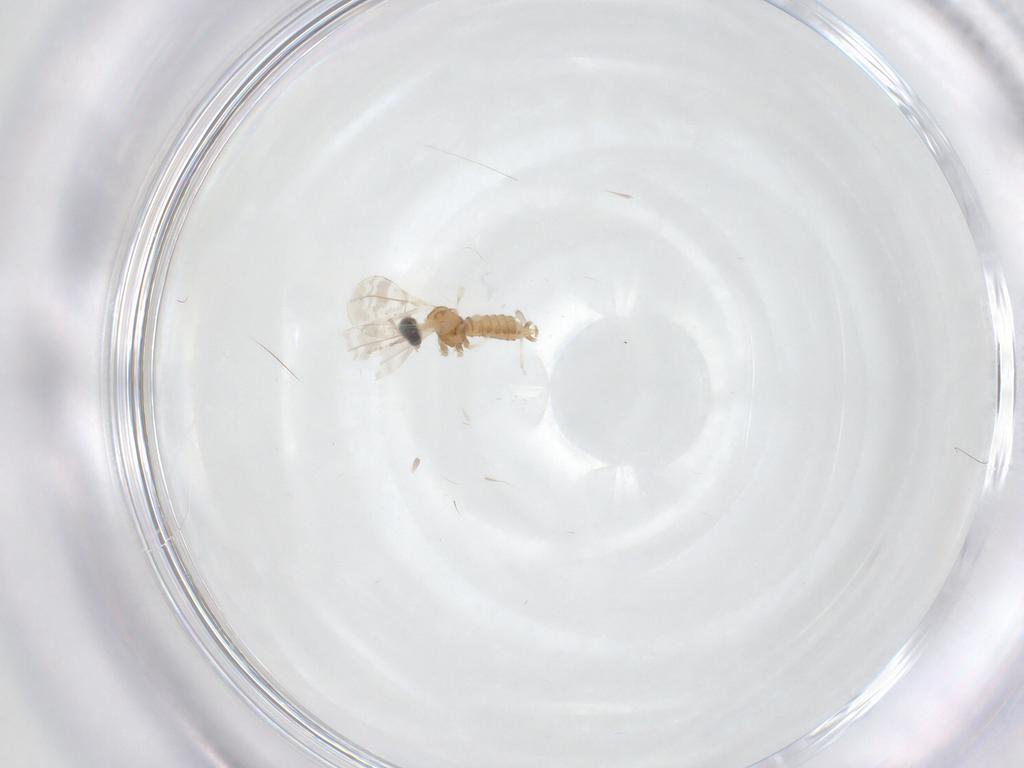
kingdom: Animalia
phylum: Arthropoda
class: Insecta
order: Diptera
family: Cecidomyiidae
